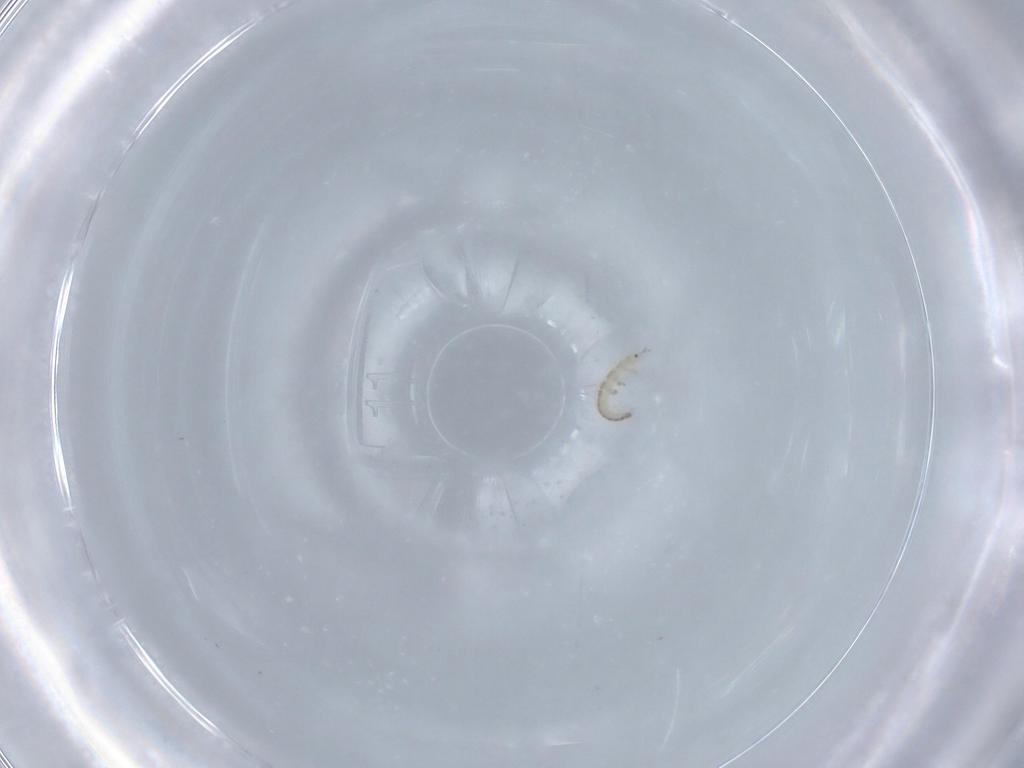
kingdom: Animalia
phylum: Arthropoda
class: Insecta
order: Neuroptera
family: Mantispidae
